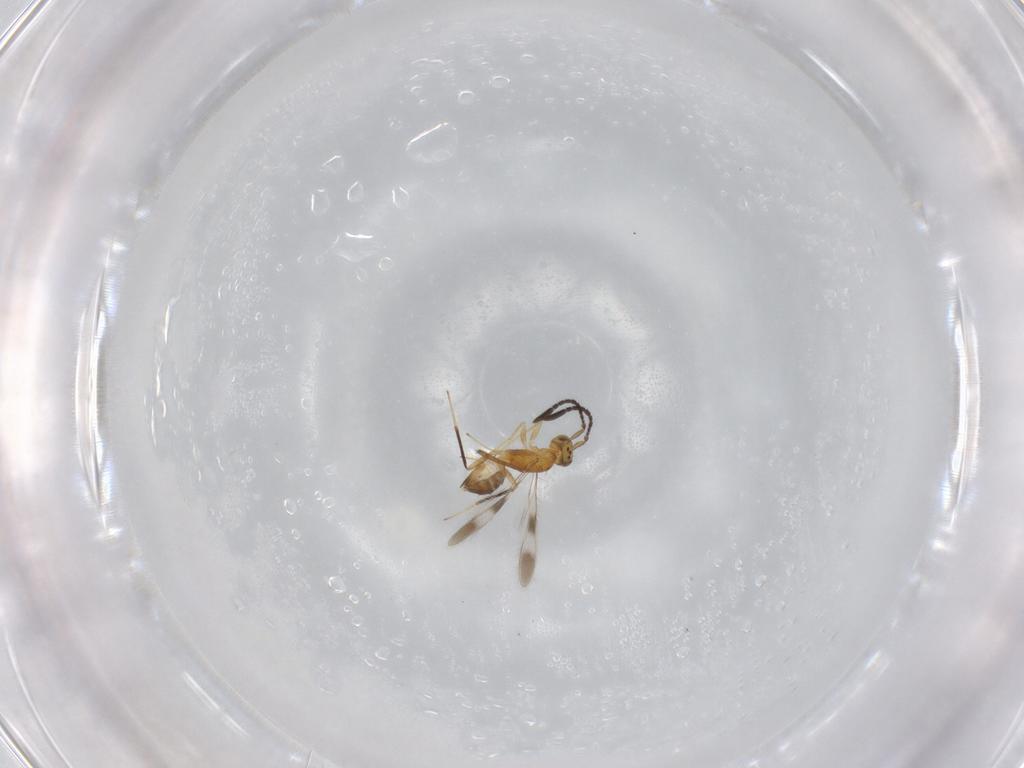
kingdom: Animalia
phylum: Arthropoda
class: Insecta
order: Hymenoptera
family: Mymaridae
